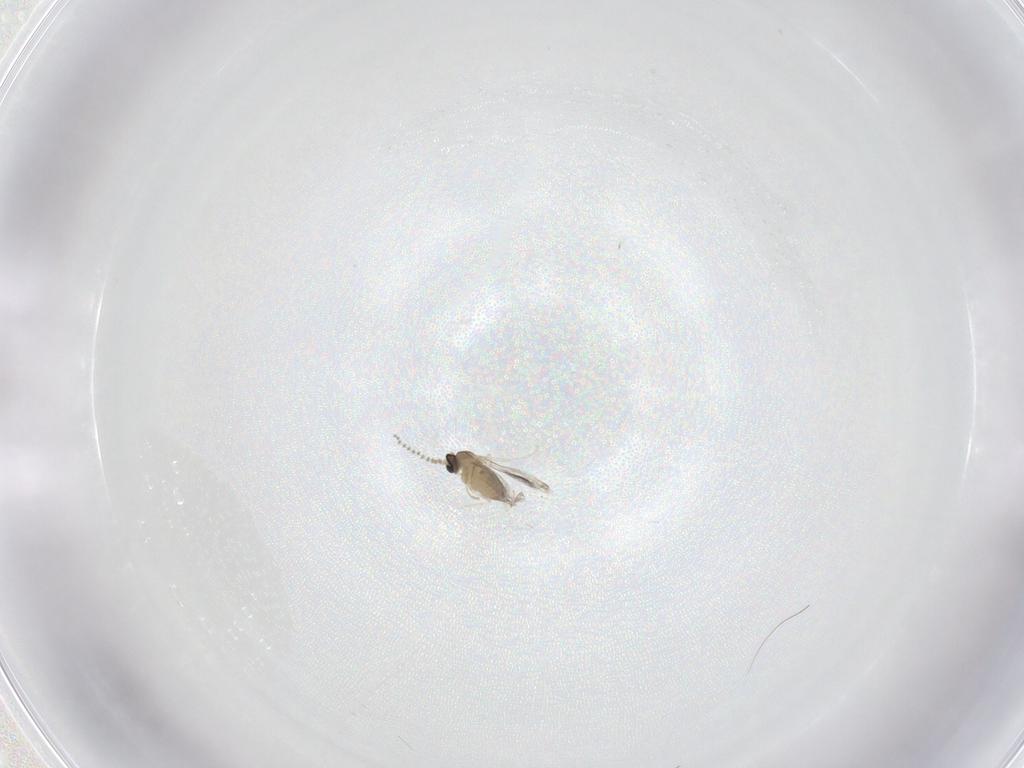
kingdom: Animalia
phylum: Arthropoda
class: Insecta
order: Diptera
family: Cecidomyiidae
